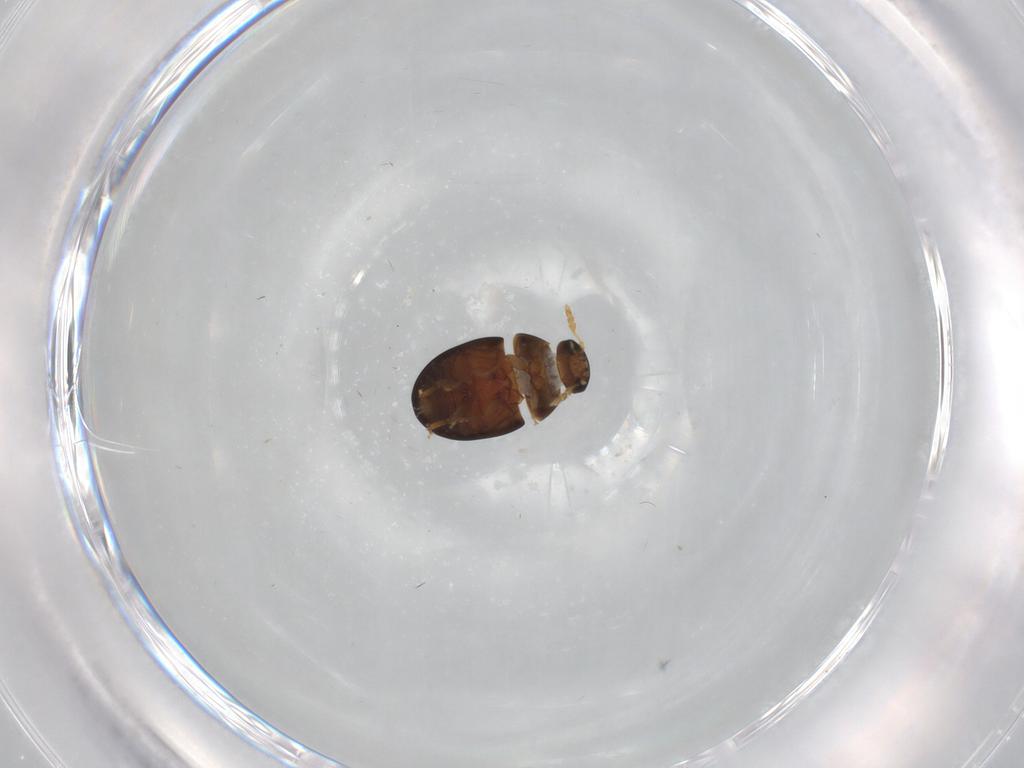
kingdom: Animalia
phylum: Arthropoda
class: Insecta
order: Coleoptera
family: Phalacridae
